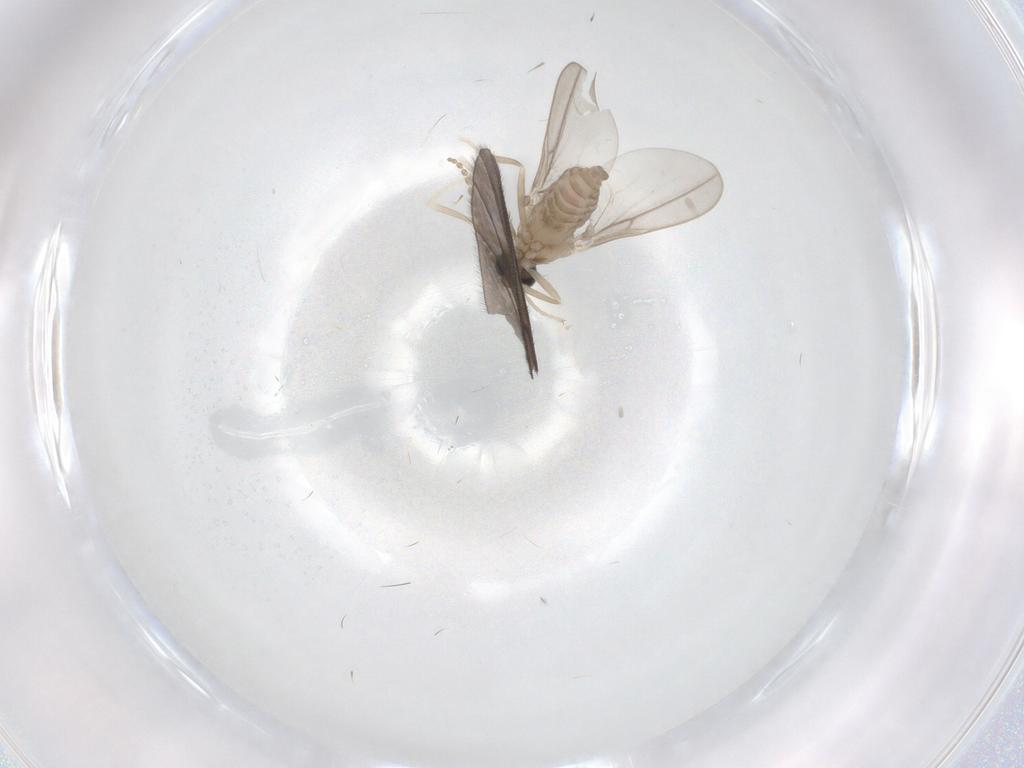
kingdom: Animalia
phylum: Arthropoda
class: Insecta
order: Diptera
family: Cecidomyiidae
